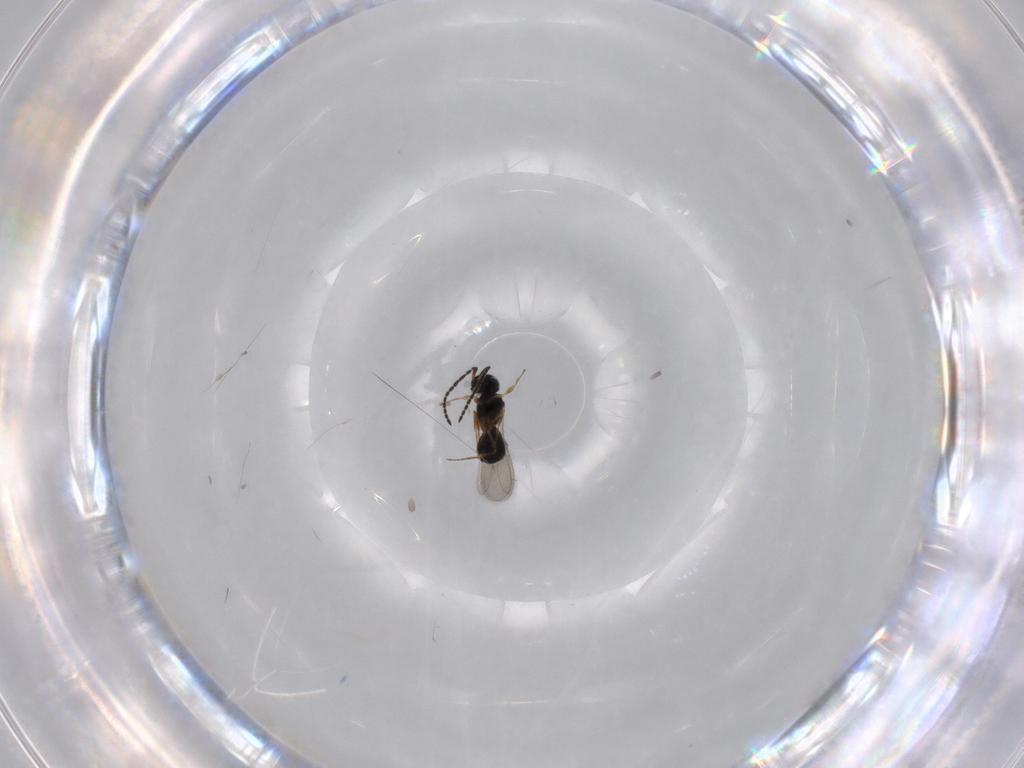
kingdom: Animalia
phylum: Arthropoda
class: Insecta
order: Hymenoptera
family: Scelionidae
